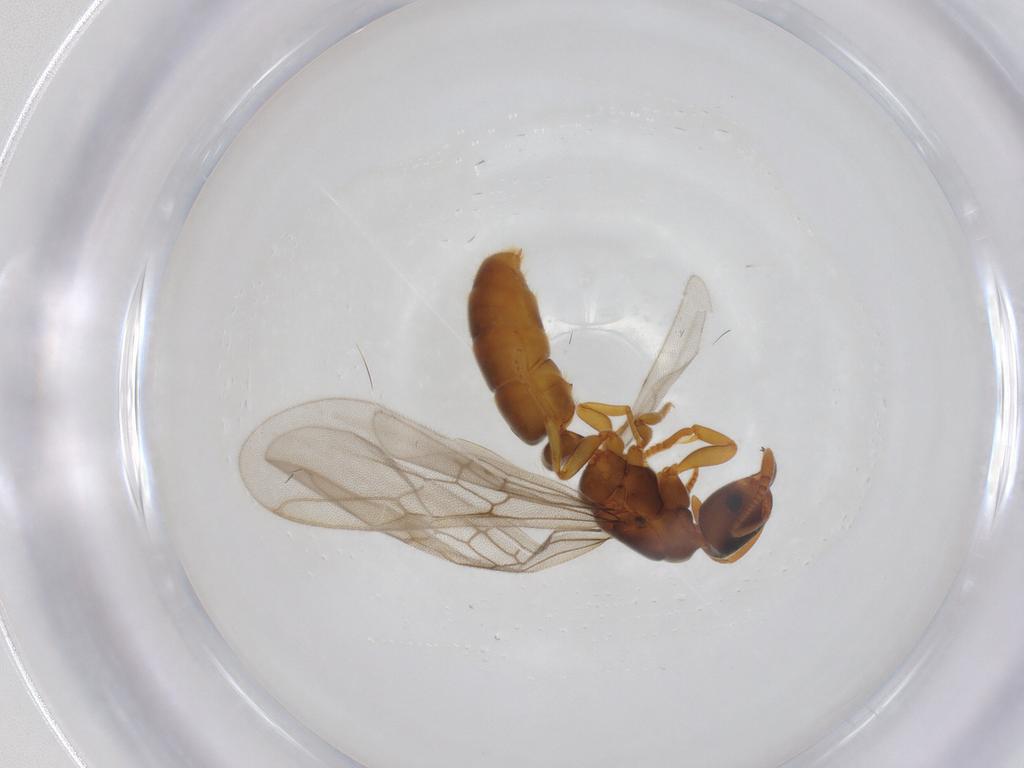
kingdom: Animalia
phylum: Arthropoda
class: Insecta
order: Hymenoptera
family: Formicidae
